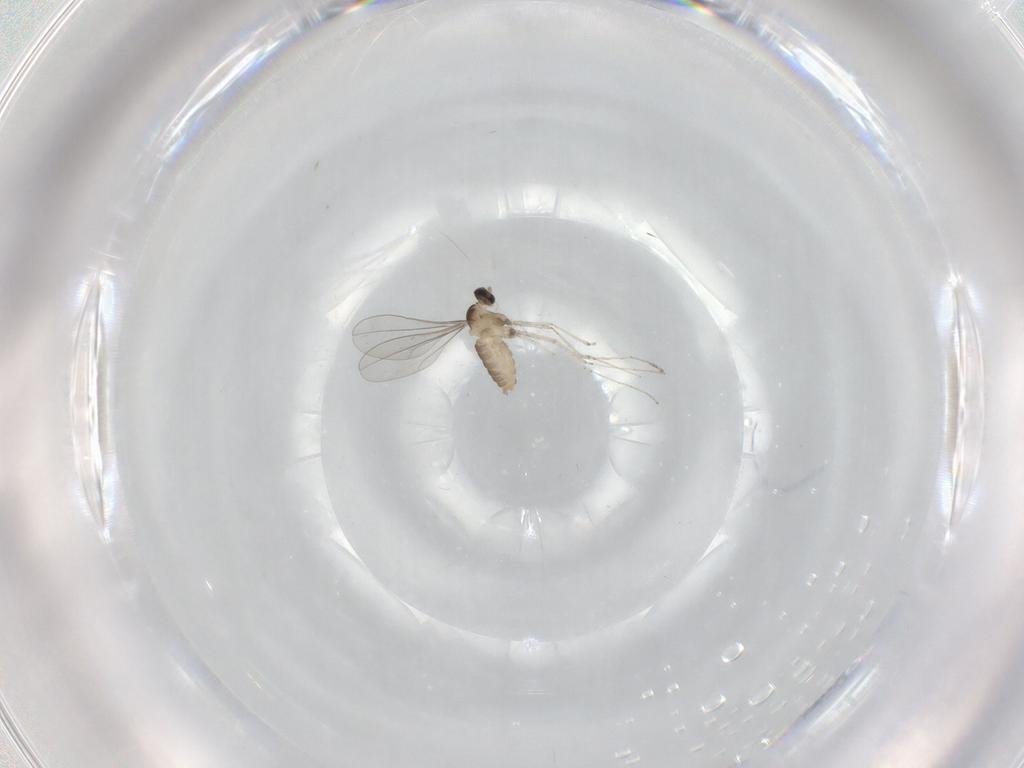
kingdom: Animalia
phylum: Arthropoda
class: Insecta
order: Diptera
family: Cecidomyiidae
